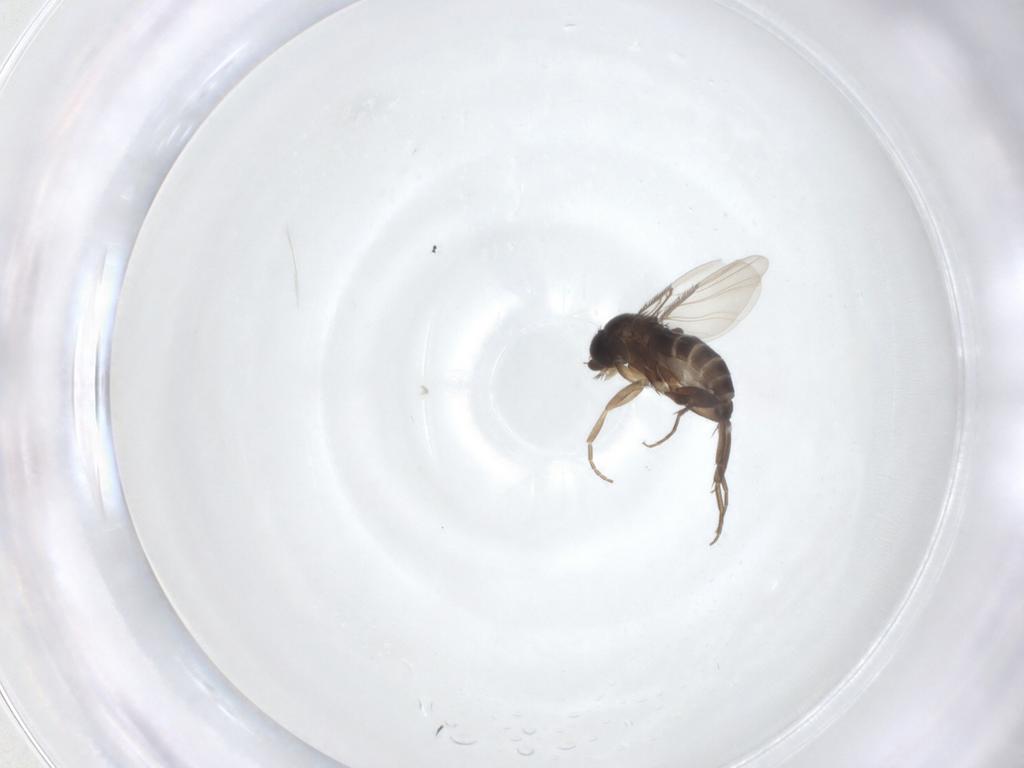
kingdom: Animalia
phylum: Arthropoda
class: Insecta
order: Diptera
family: Phoridae
